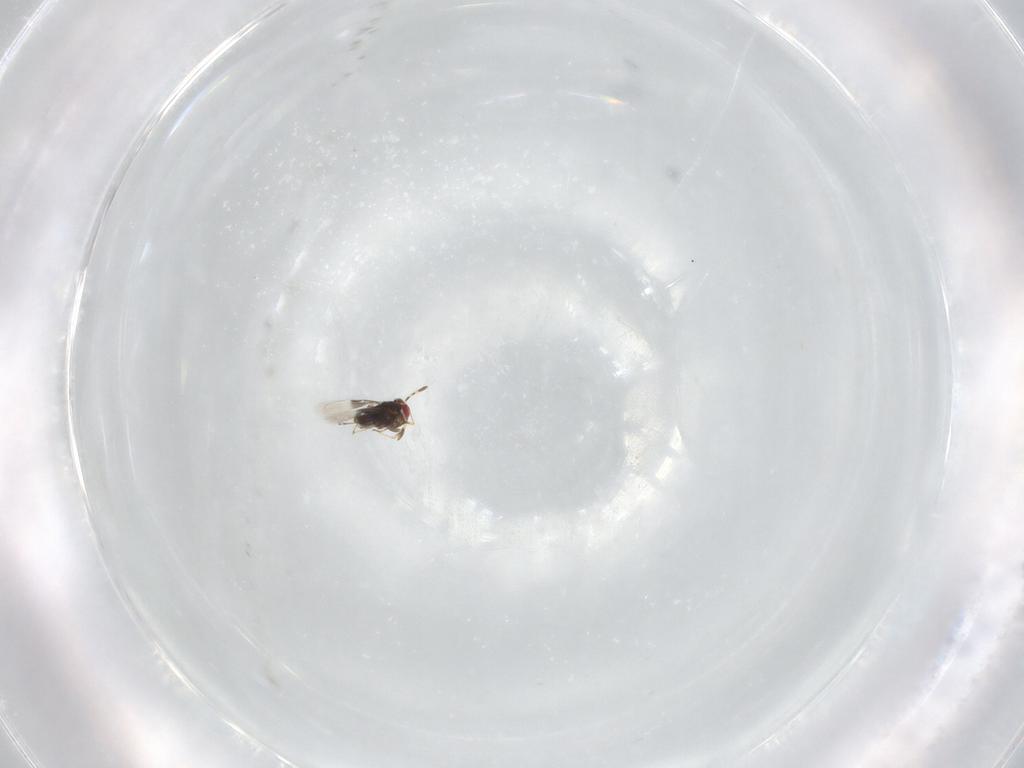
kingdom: Animalia
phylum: Arthropoda
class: Insecta
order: Hymenoptera
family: Azotidae
